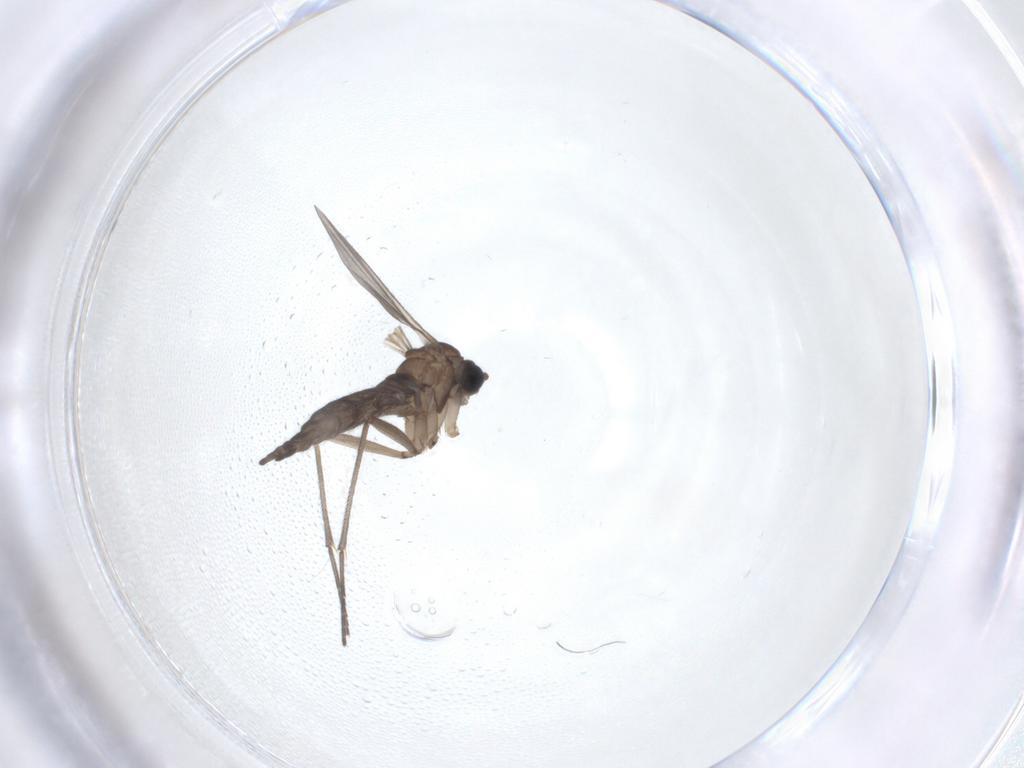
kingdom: Animalia
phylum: Arthropoda
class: Insecta
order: Diptera
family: Sciaridae
